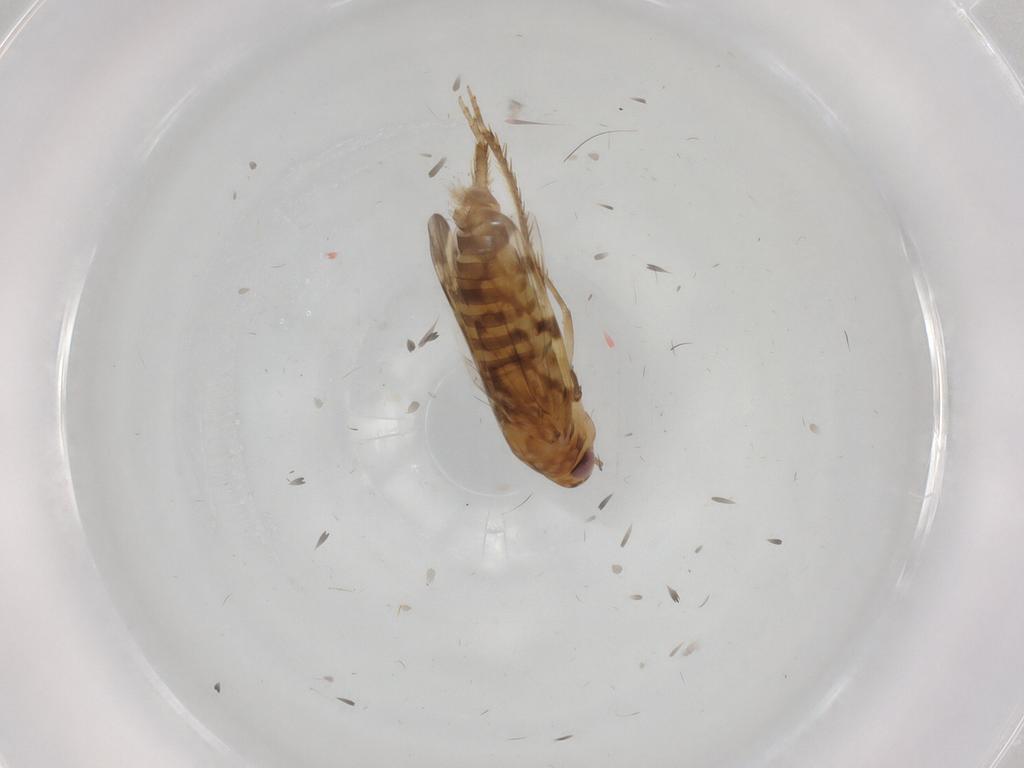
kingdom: Animalia
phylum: Arthropoda
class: Insecta
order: Hemiptera
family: Cicadellidae
